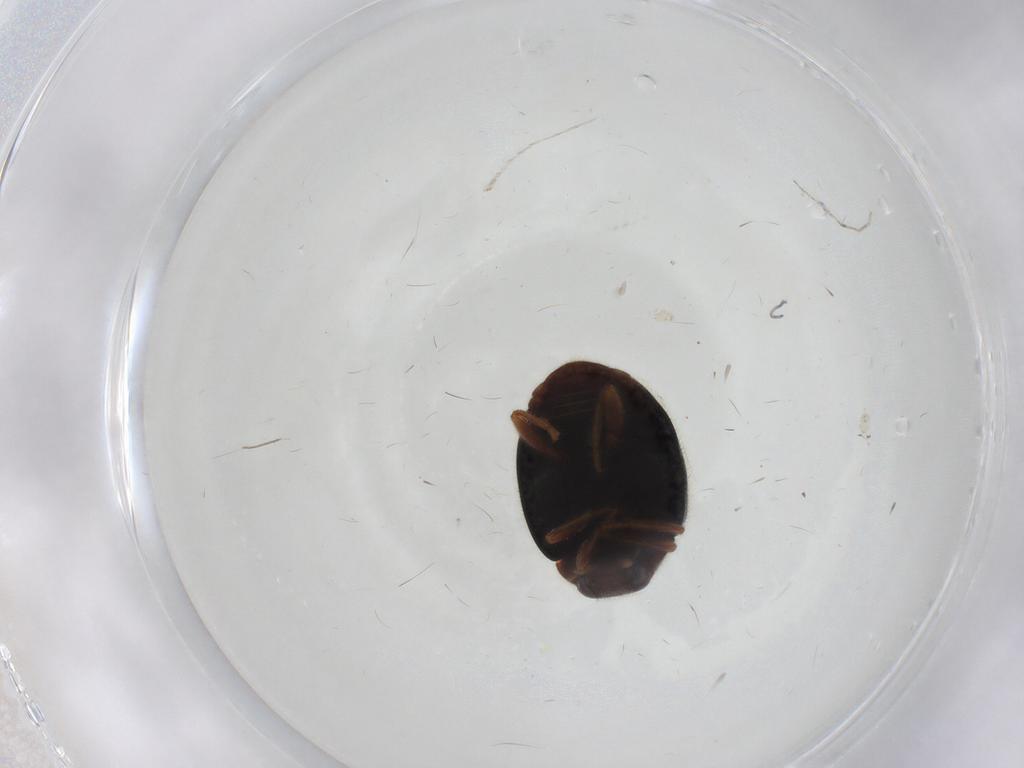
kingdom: Animalia
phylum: Arthropoda
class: Insecta
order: Coleoptera
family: Coccinellidae
